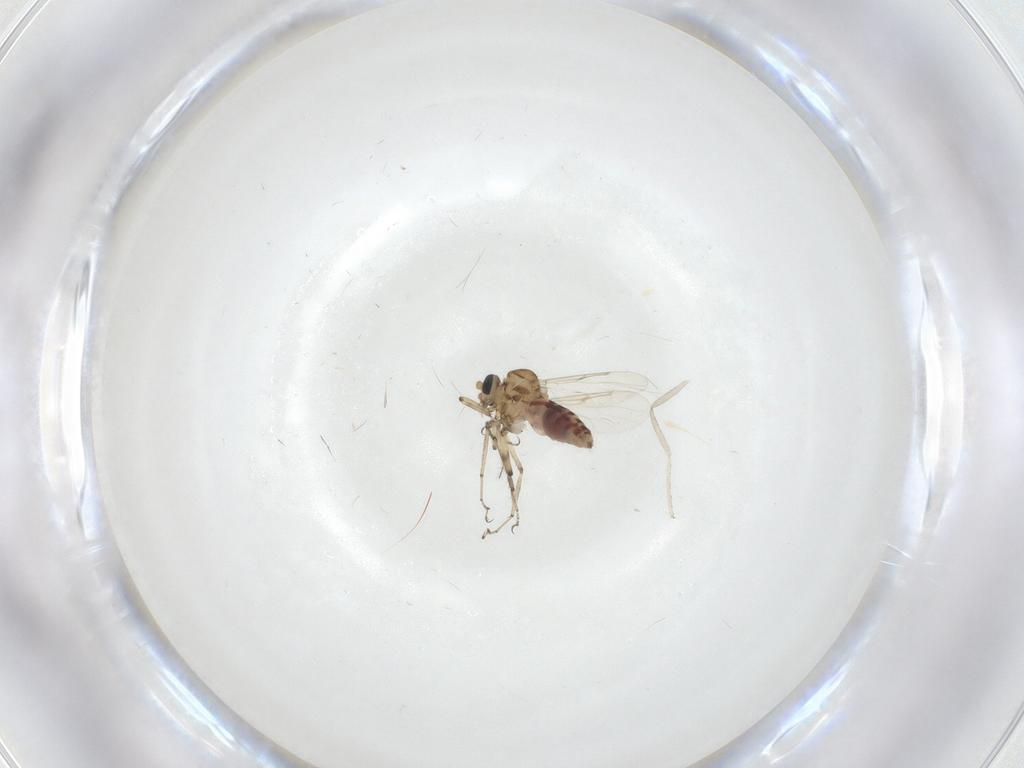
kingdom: Animalia
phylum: Arthropoda
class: Insecta
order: Diptera
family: Ceratopogonidae
